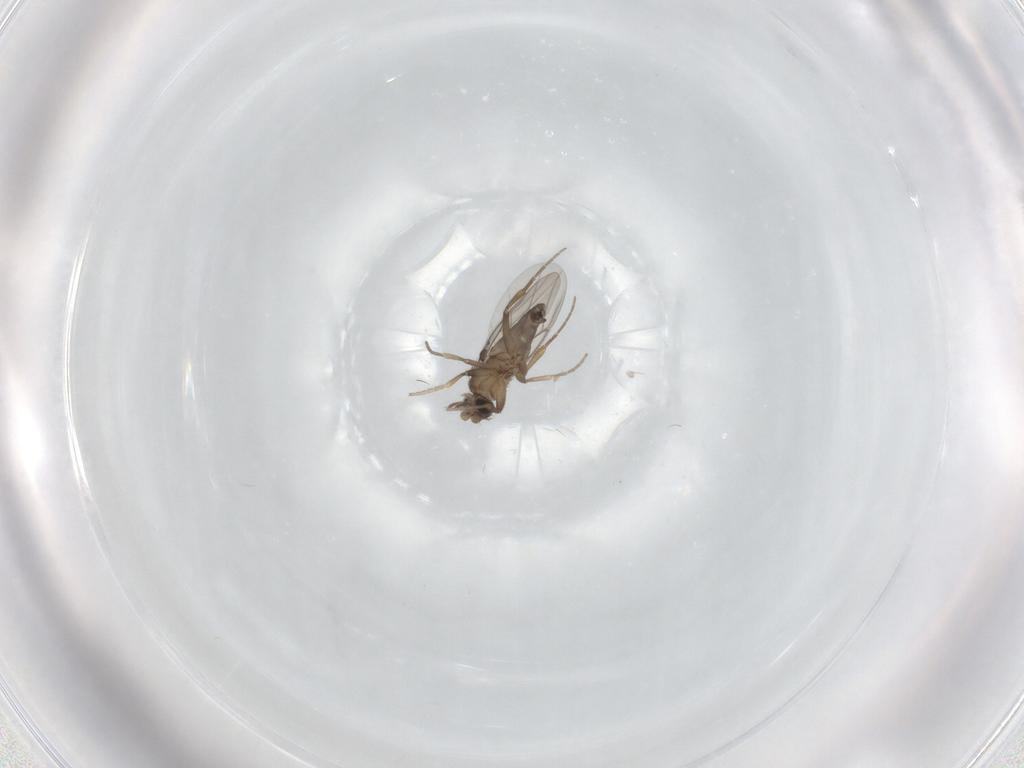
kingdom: Animalia
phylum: Arthropoda
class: Insecta
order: Diptera
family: Phoridae
